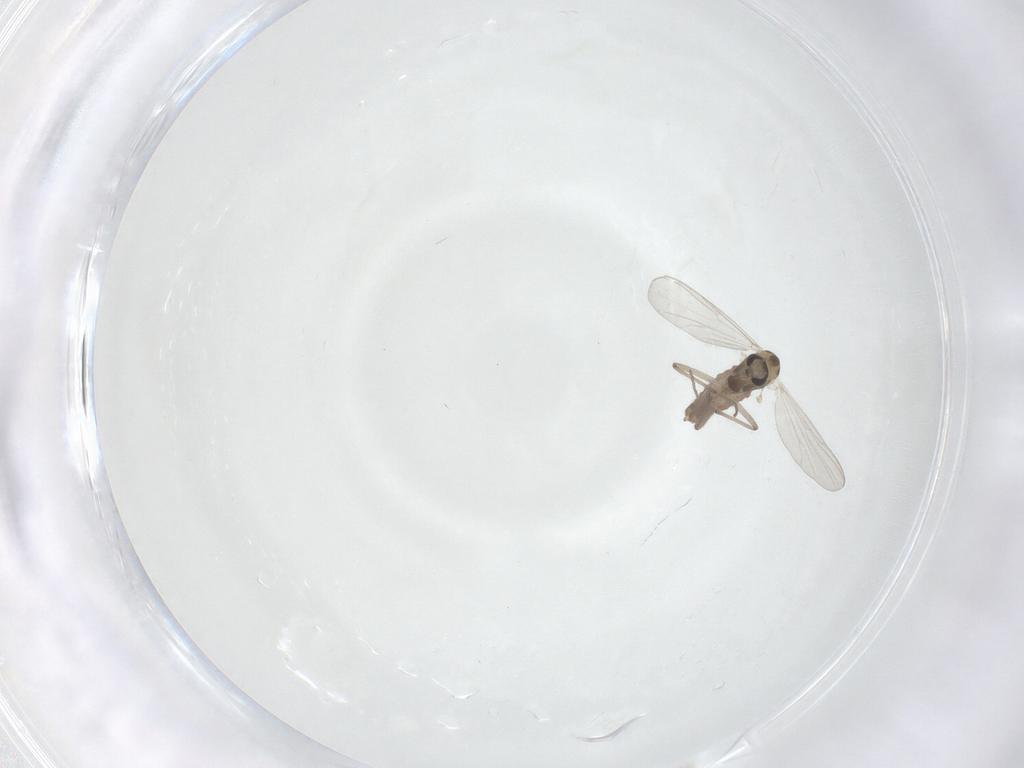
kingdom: Animalia
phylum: Arthropoda
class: Insecta
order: Diptera
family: Chironomidae
